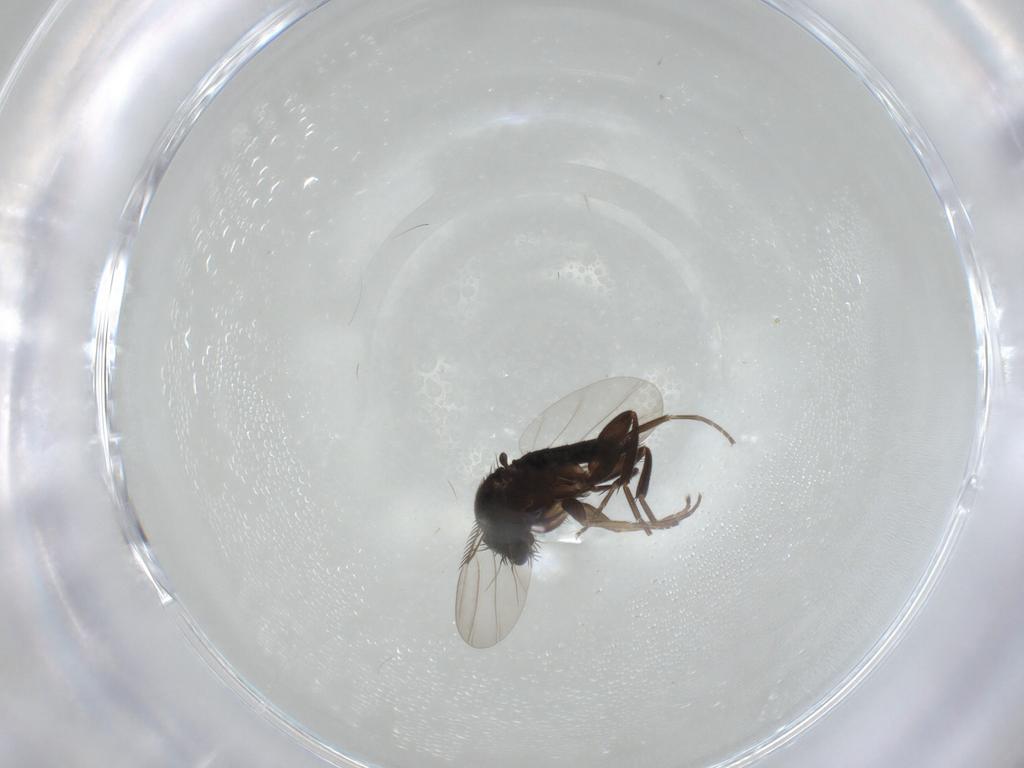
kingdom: Animalia
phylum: Arthropoda
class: Insecta
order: Diptera
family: Phoridae
